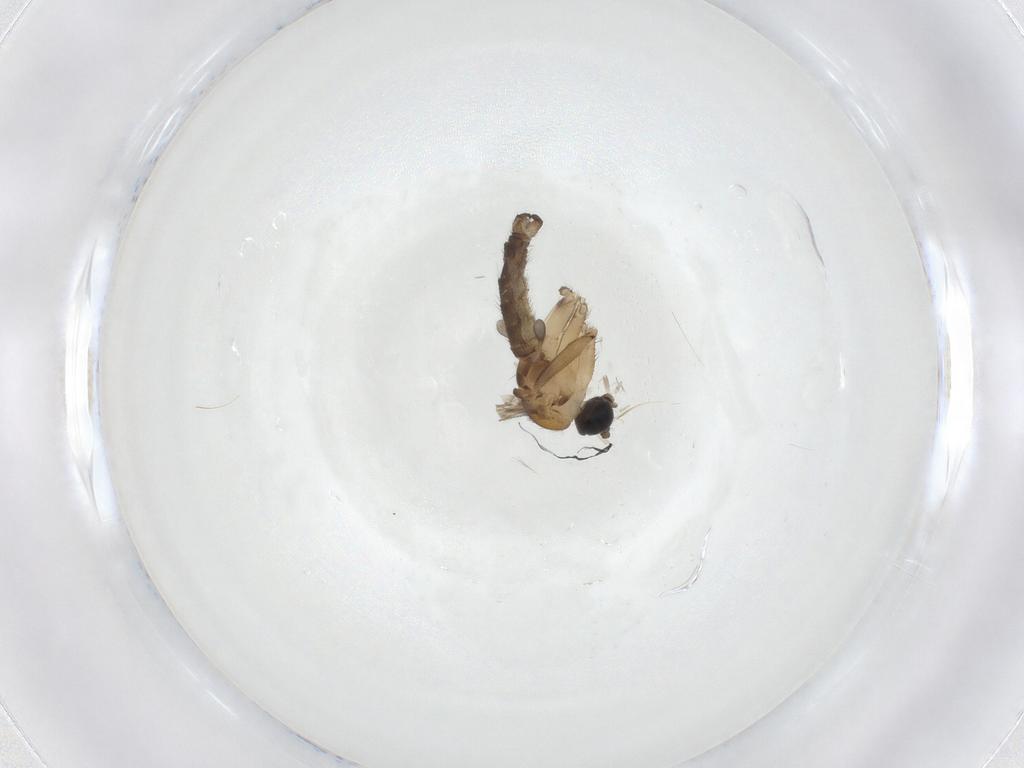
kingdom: Animalia
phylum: Arthropoda
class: Insecta
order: Diptera
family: Sciaridae
